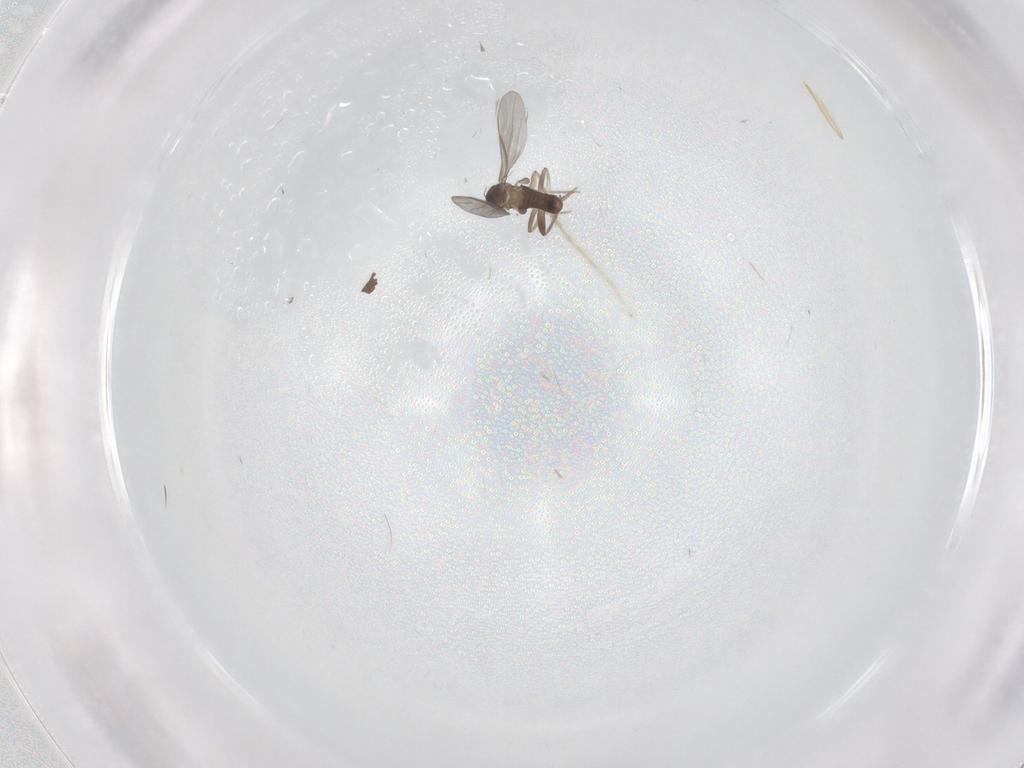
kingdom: Animalia
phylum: Arthropoda
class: Insecta
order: Diptera
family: Chironomidae
